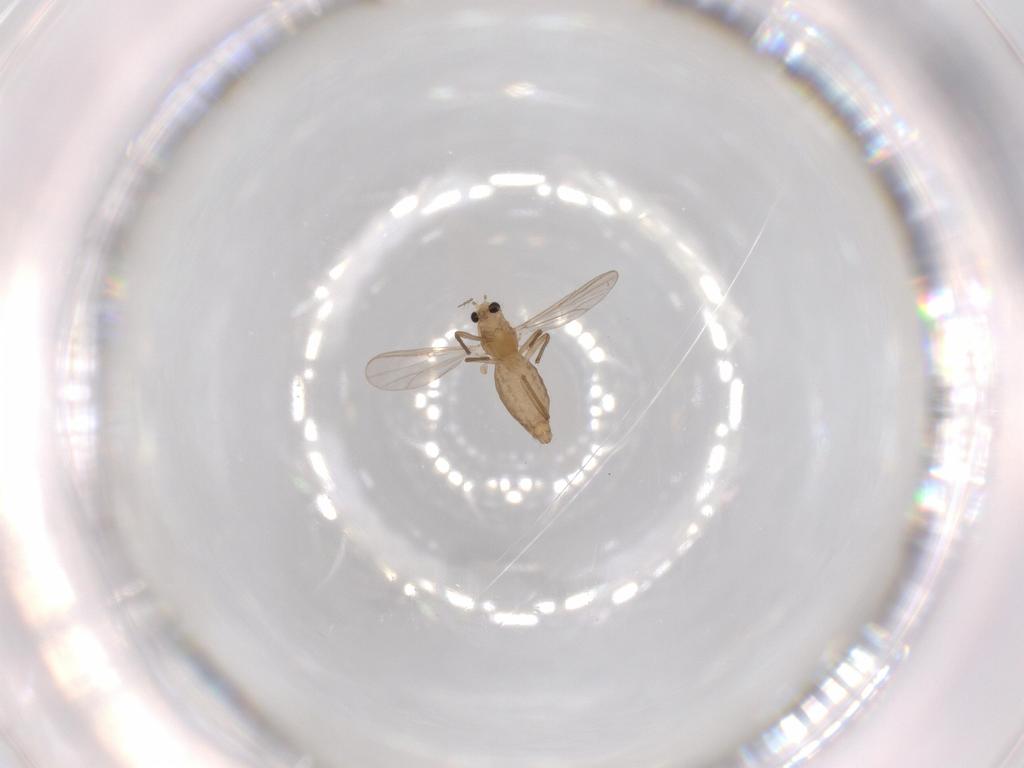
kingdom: Animalia
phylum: Arthropoda
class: Insecta
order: Diptera
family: Chironomidae
